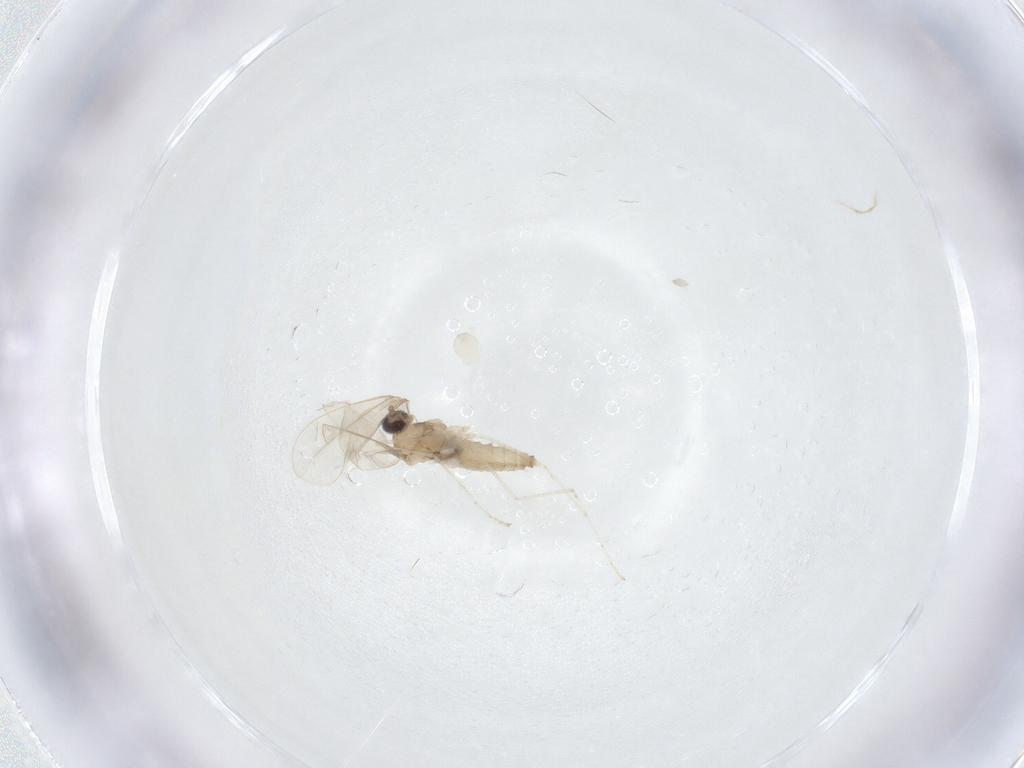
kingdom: Animalia
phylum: Arthropoda
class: Insecta
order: Diptera
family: Cecidomyiidae
